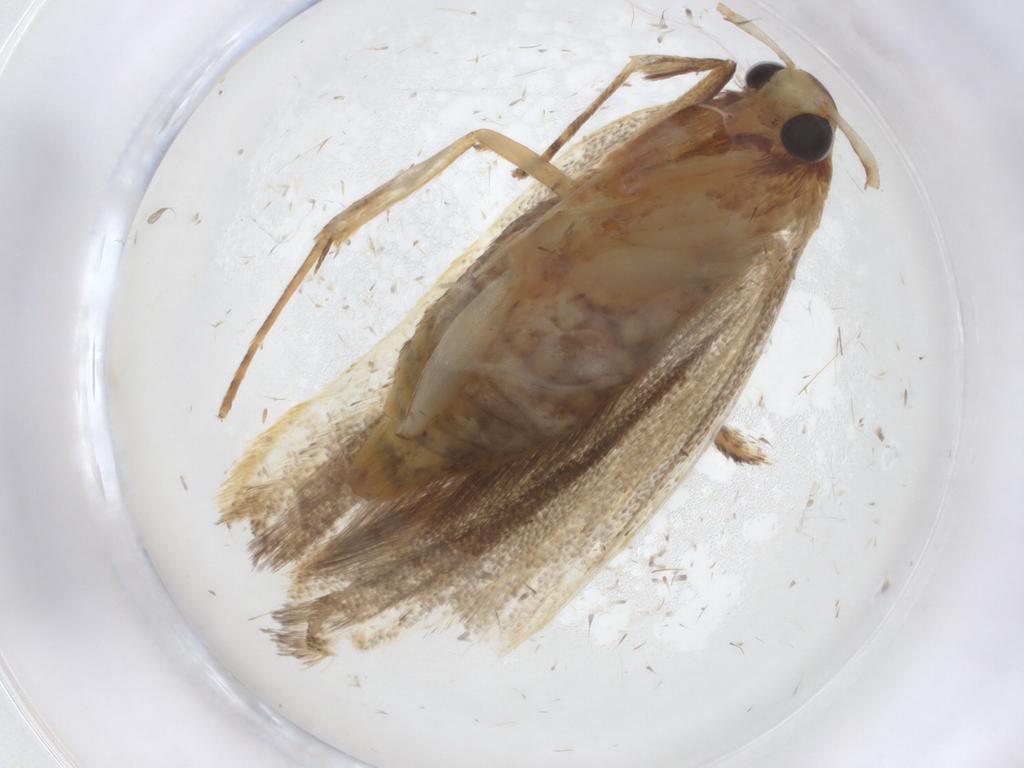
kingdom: Animalia
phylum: Arthropoda
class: Insecta
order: Lepidoptera
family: Lecithoceridae
